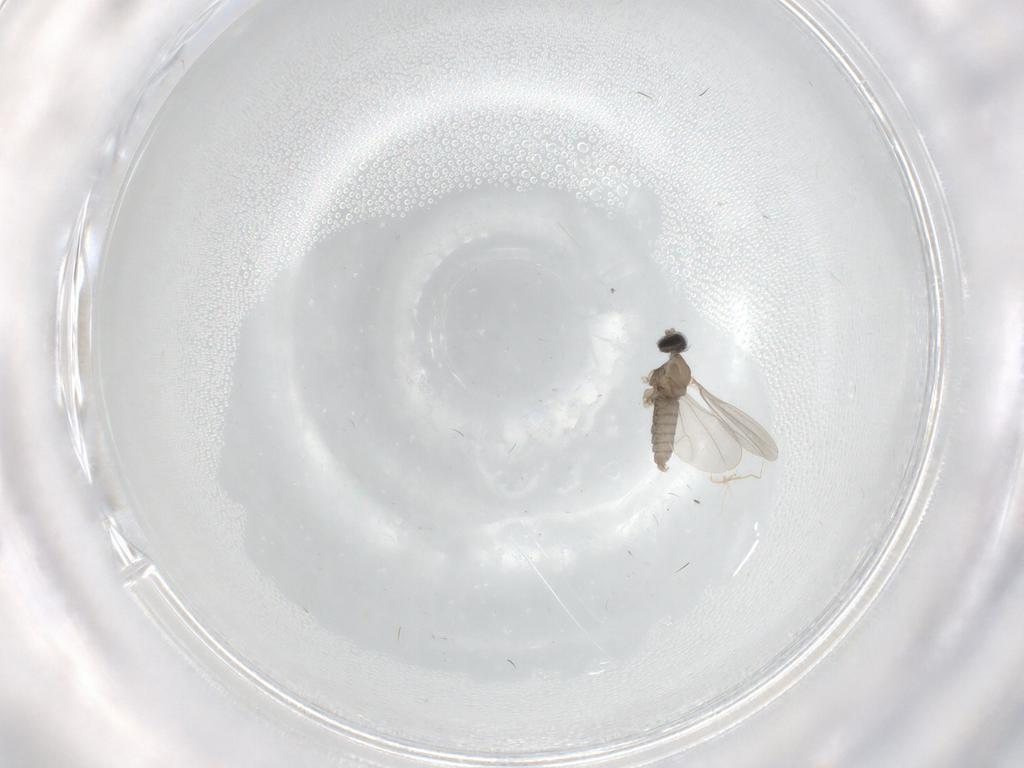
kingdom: Animalia
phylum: Arthropoda
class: Insecta
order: Diptera
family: Cecidomyiidae
